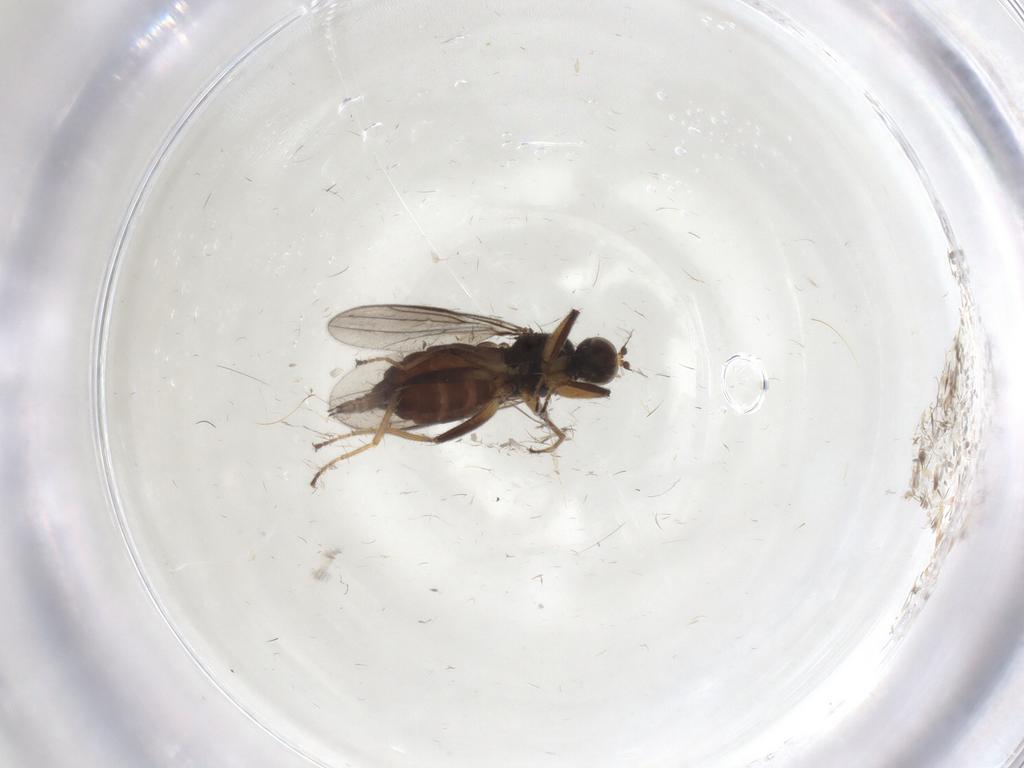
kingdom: Animalia
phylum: Arthropoda
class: Insecta
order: Diptera
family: Hybotidae
